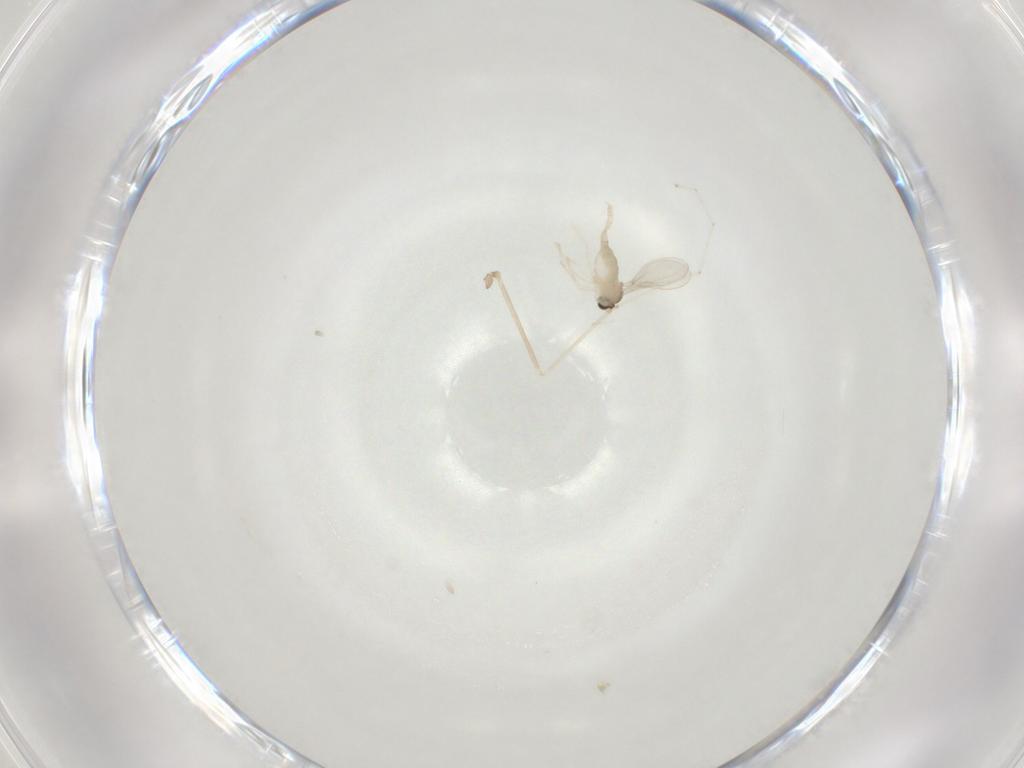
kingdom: Animalia
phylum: Arthropoda
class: Insecta
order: Diptera
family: Cecidomyiidae
